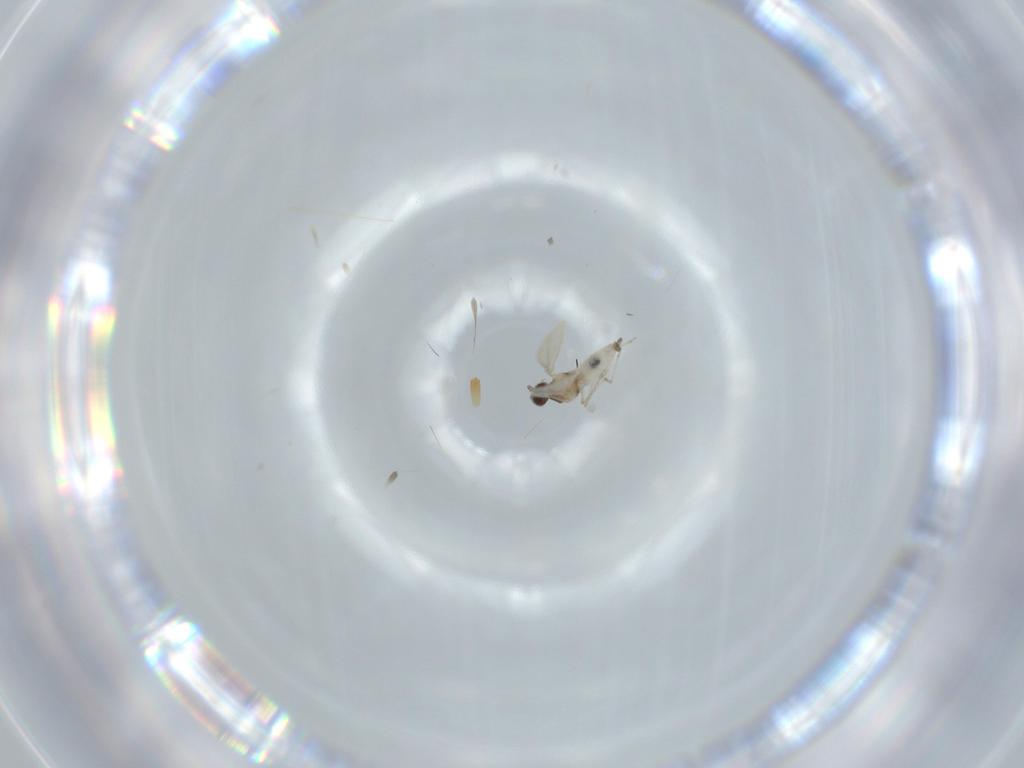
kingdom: Animalia
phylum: Arthropoda
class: Insecta
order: Diptera
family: Cecidomyiidae
